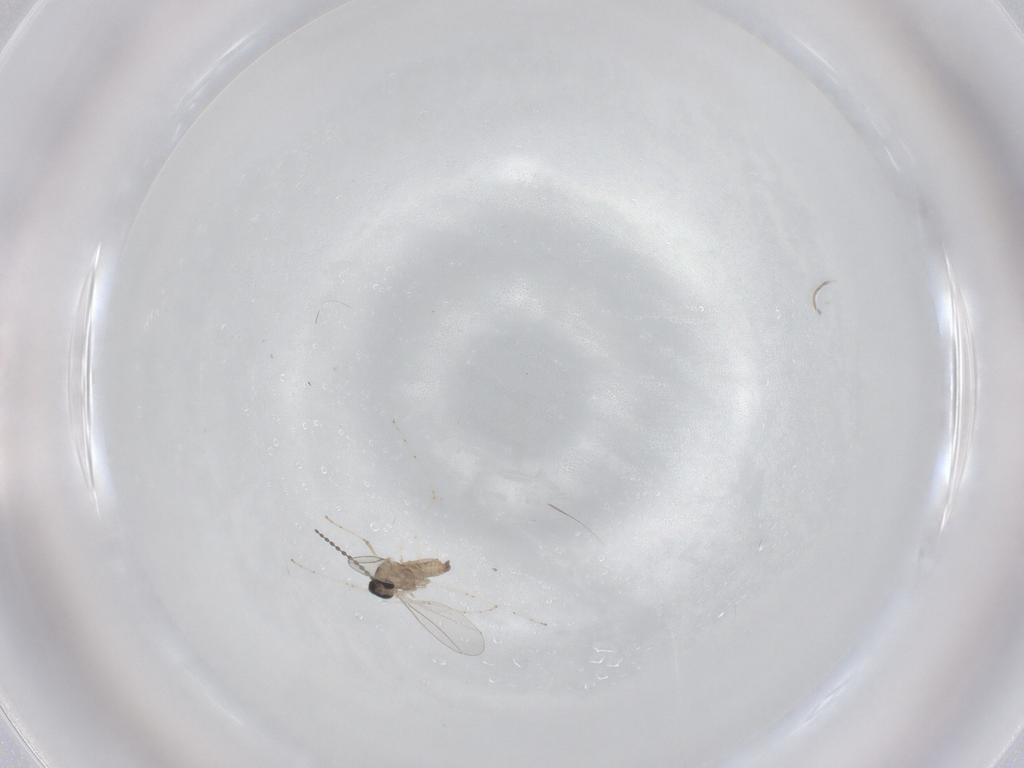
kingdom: Animalia
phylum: Arthropoda
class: Insecta
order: Diptera
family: Cecidomyiidae
